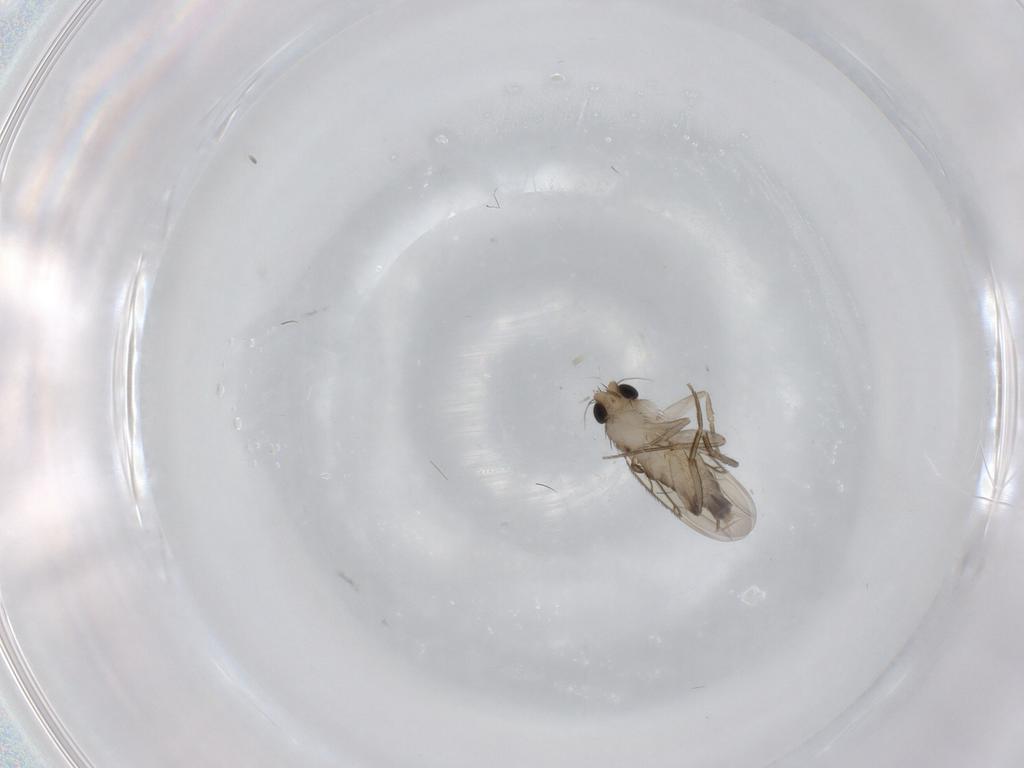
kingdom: Animalia
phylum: Arthropoda
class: Insecta
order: Diptera
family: Phoridae
